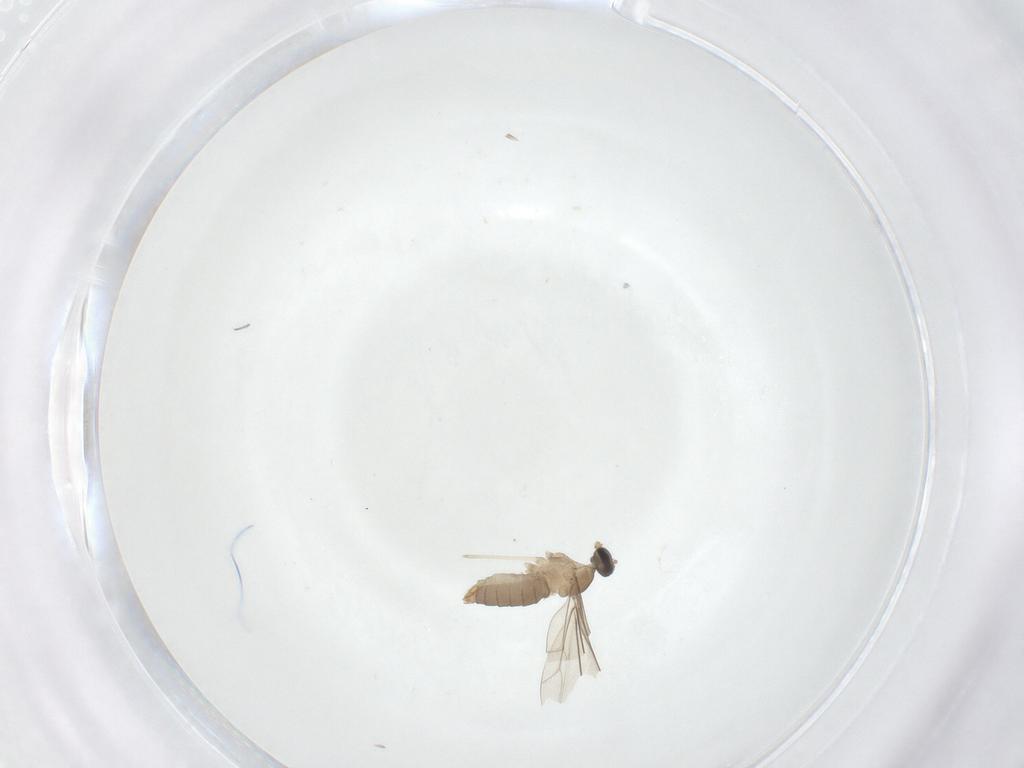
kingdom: Animalia
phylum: Arthropoda
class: Insecta
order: Diptera
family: Cecidomyiidae
